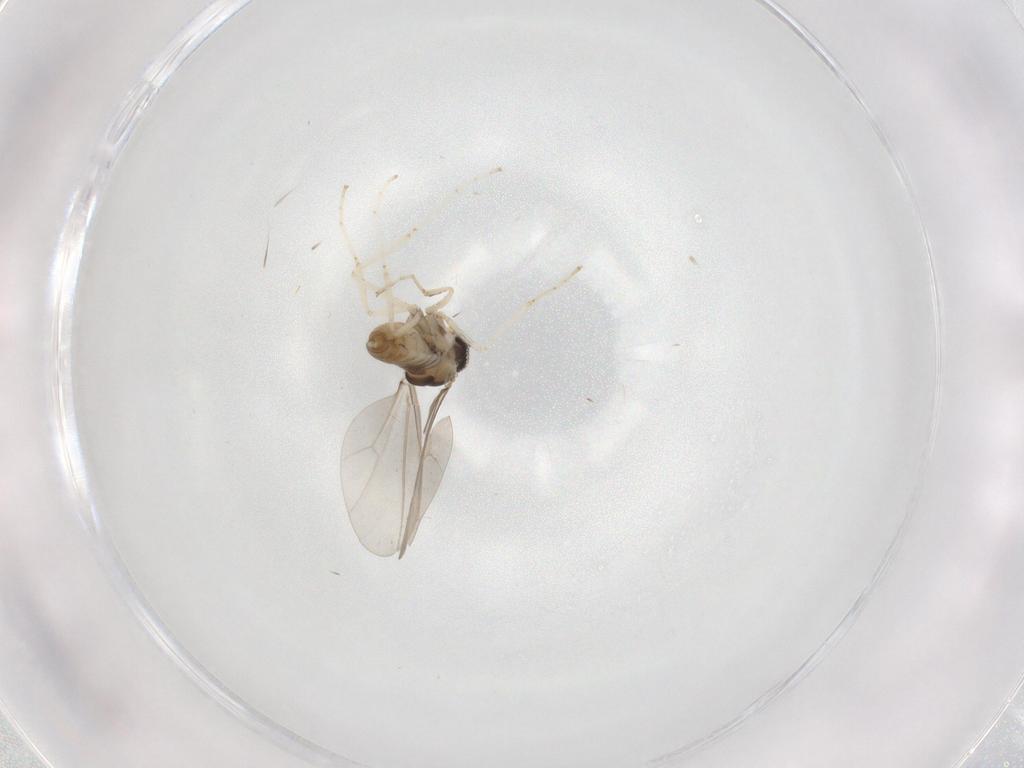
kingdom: Animalia
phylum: Arthropoda
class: Insecta
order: Diptera
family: Cecidomyiidae
